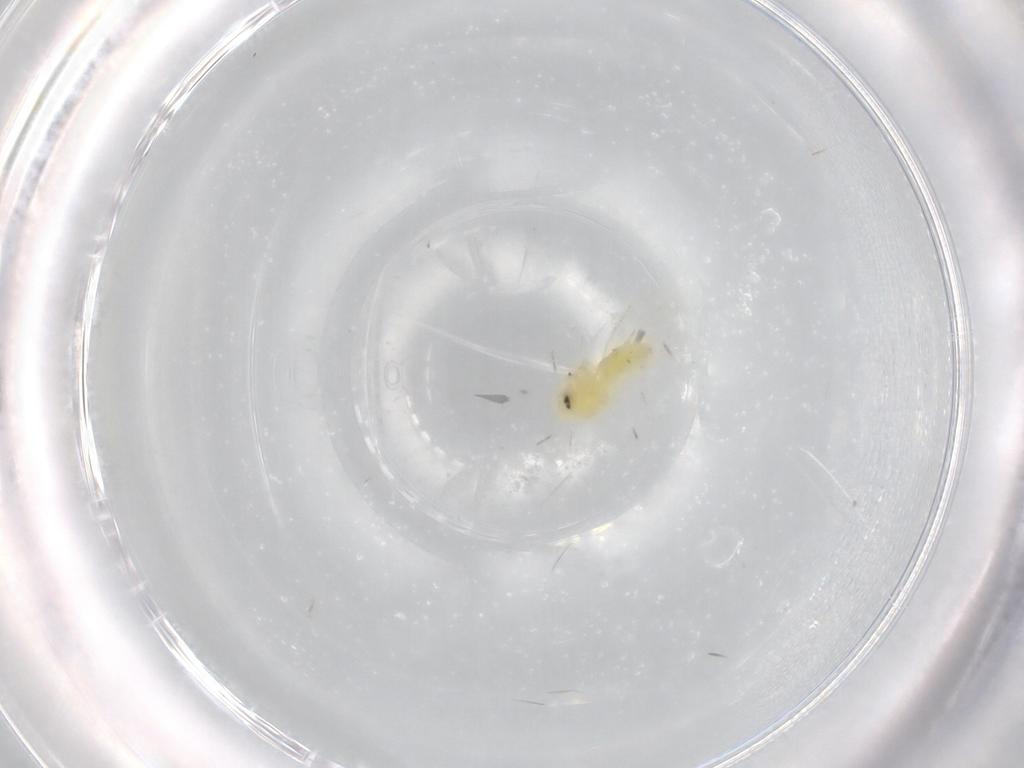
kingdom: Animalia
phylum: Arthropoda
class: Insecta
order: Hemiptera
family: Aleyrodidae
